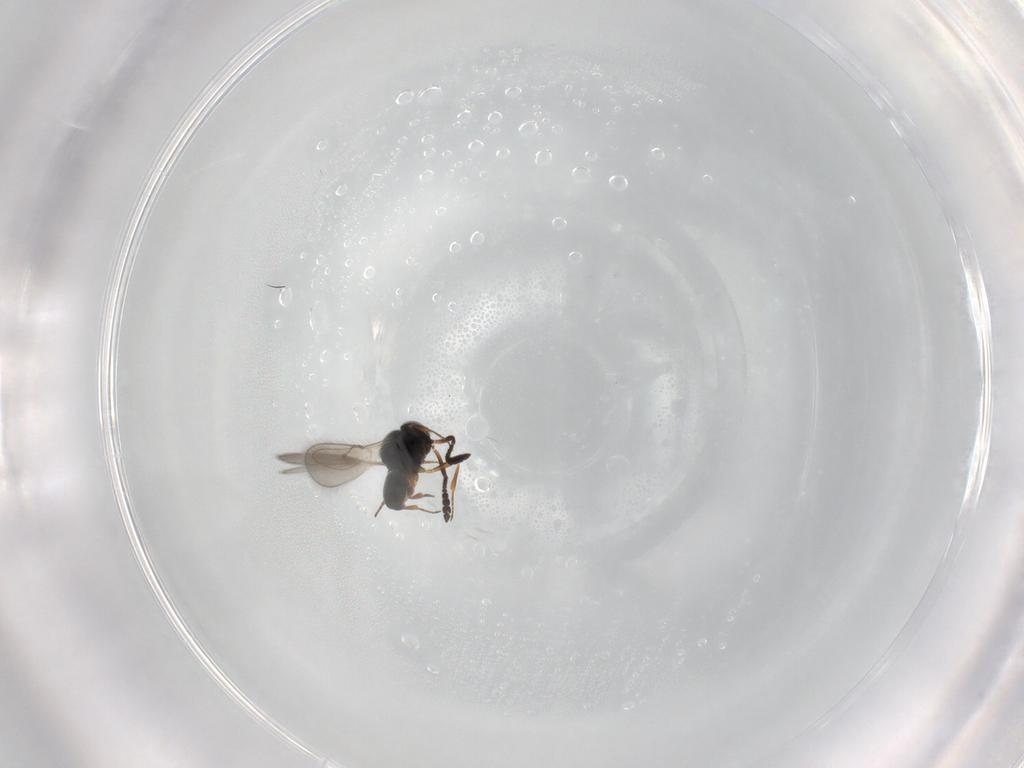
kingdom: Animalia
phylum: Arthropoda
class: Insecta
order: Hymenoptera
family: Scelionidae
